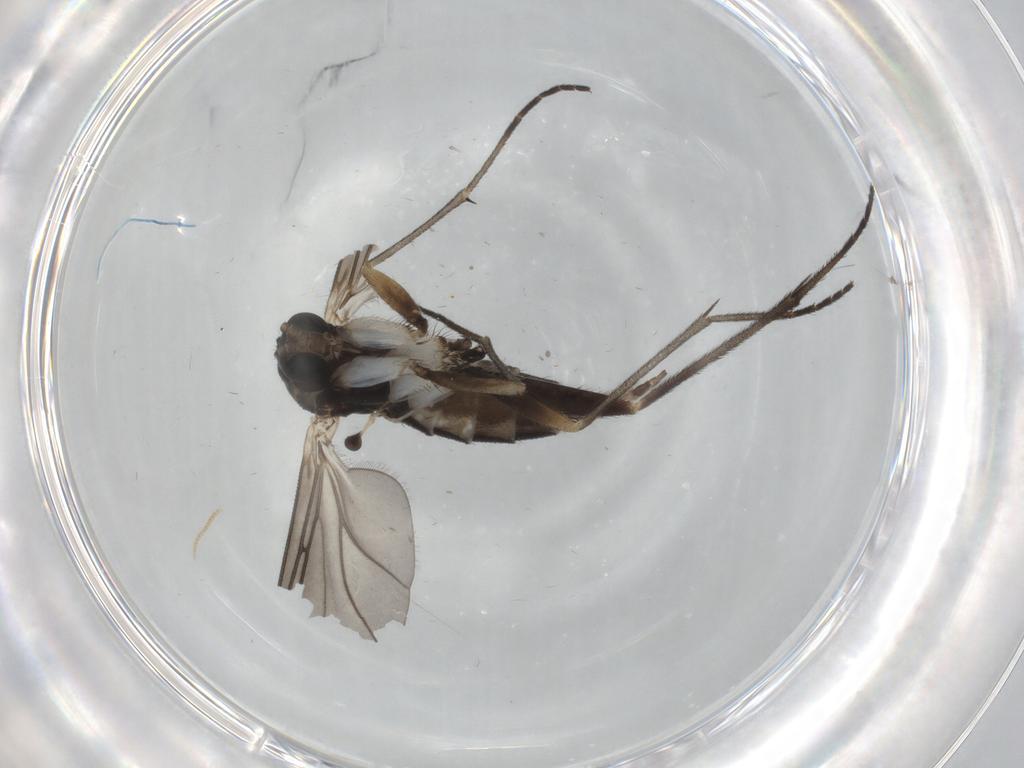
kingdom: Animalia
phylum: Arthropoda
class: Insecta
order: Diptera
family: Sciaridae
